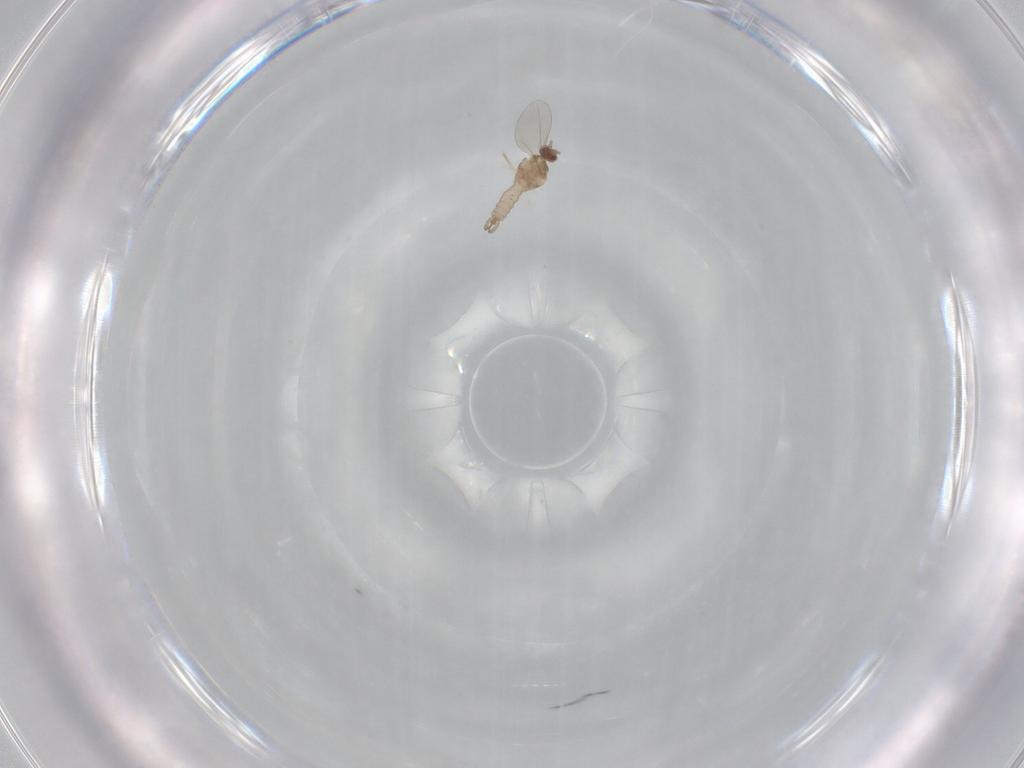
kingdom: Animalia
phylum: Arthropoda
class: Insecta
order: Diptera
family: Cecidomyiidae
